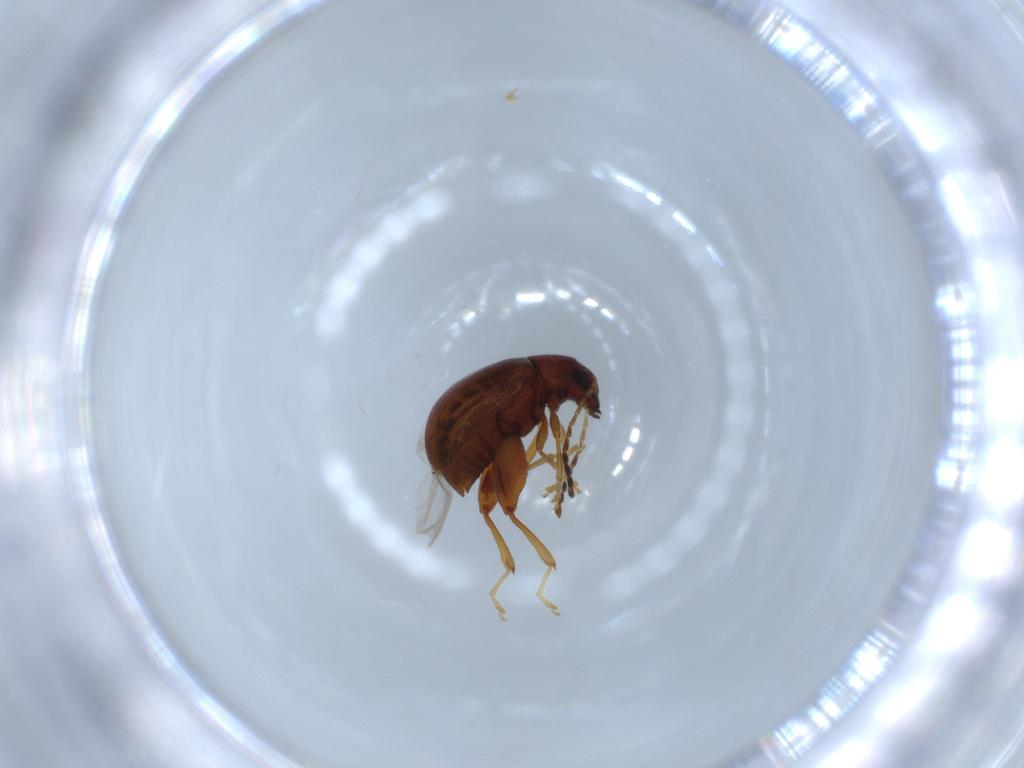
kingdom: Animalia
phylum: Arthropoda
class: Insecta
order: Coleoptera
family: Chrysomelidae
